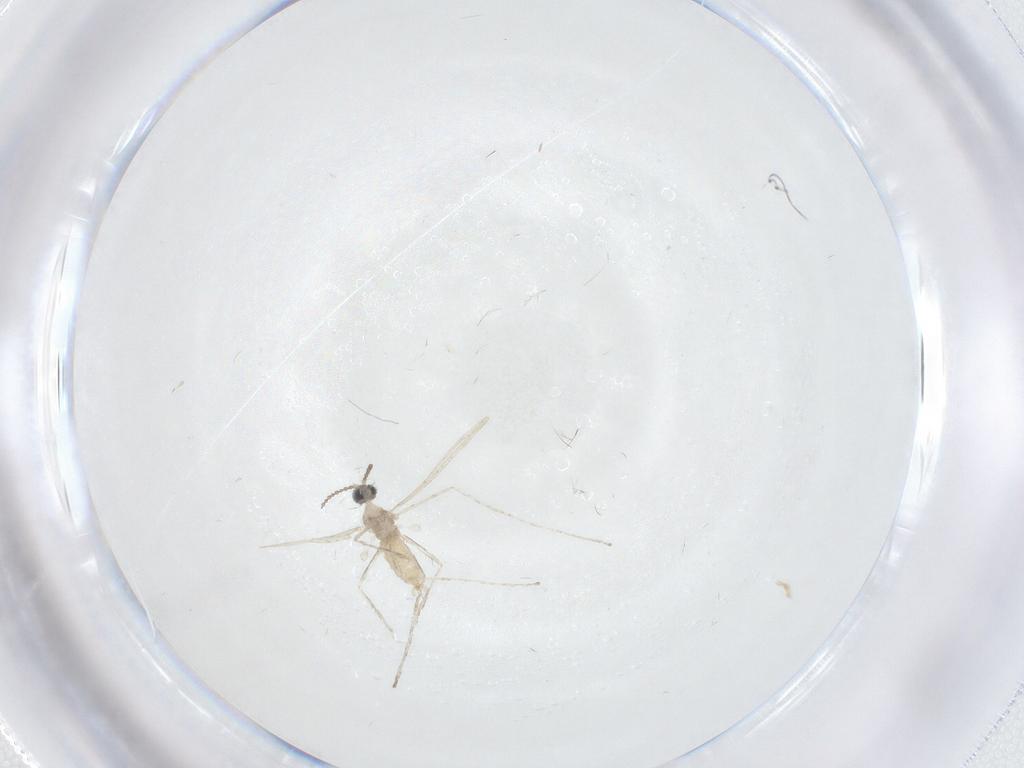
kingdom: Animalia
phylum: Arthropoda
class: Insecta
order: Diptera
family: Cecidomyiidae
